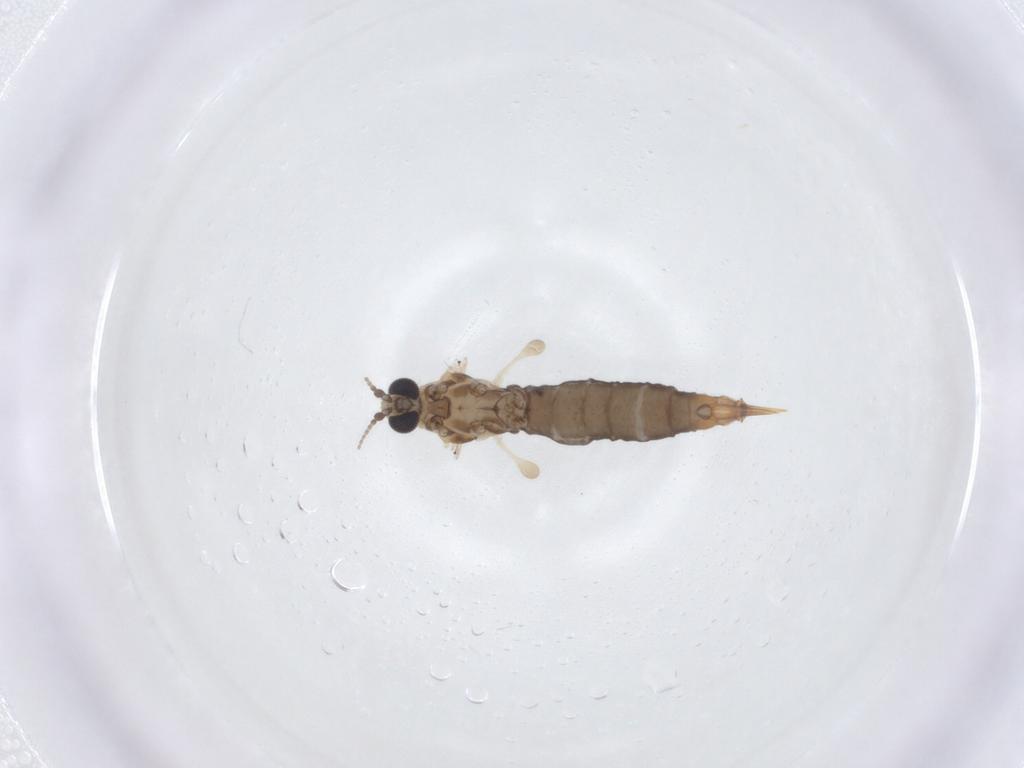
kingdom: Animalia
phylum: Arthropoda
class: Insecta
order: Diptera
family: Limoniidae
